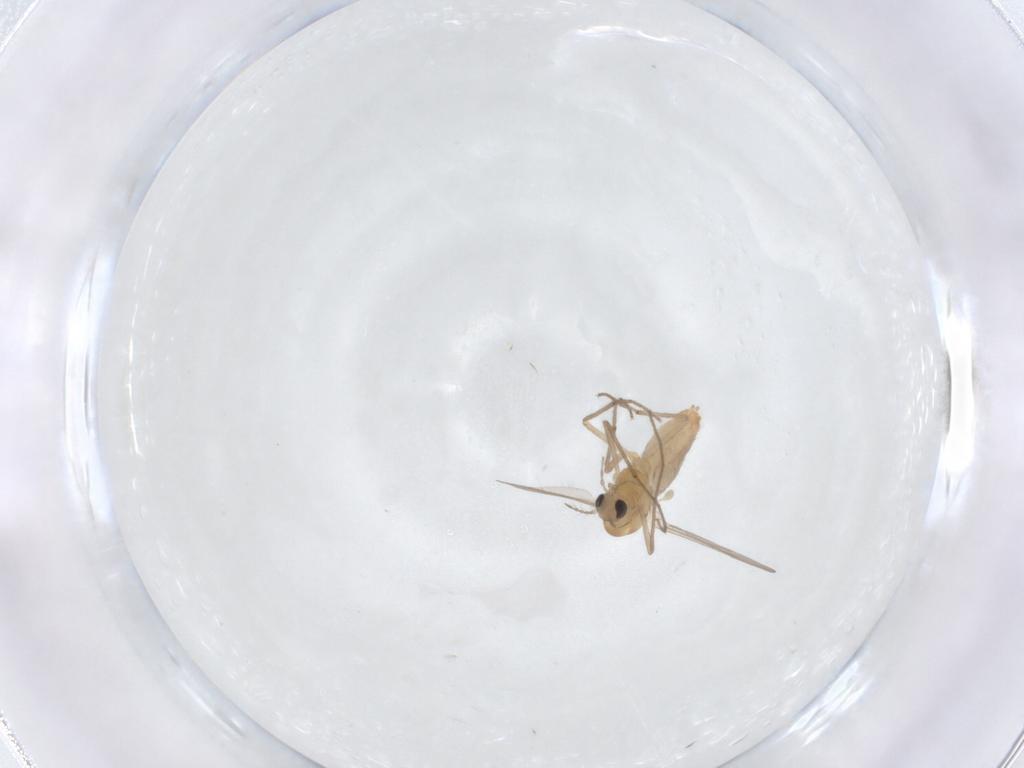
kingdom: Animalia
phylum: Arthropoda
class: Insecta
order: Diptera
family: Chironomidae
